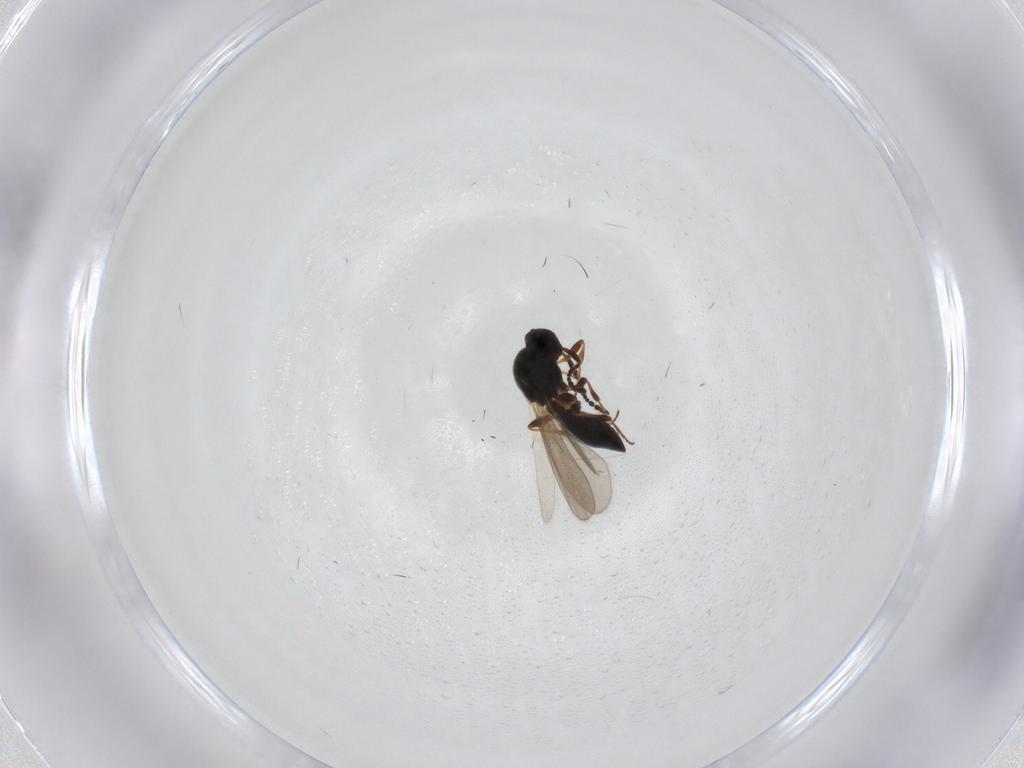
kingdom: Animalia
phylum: Arthropoda
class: Insecta
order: Hymenoptera
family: Platygastridae
